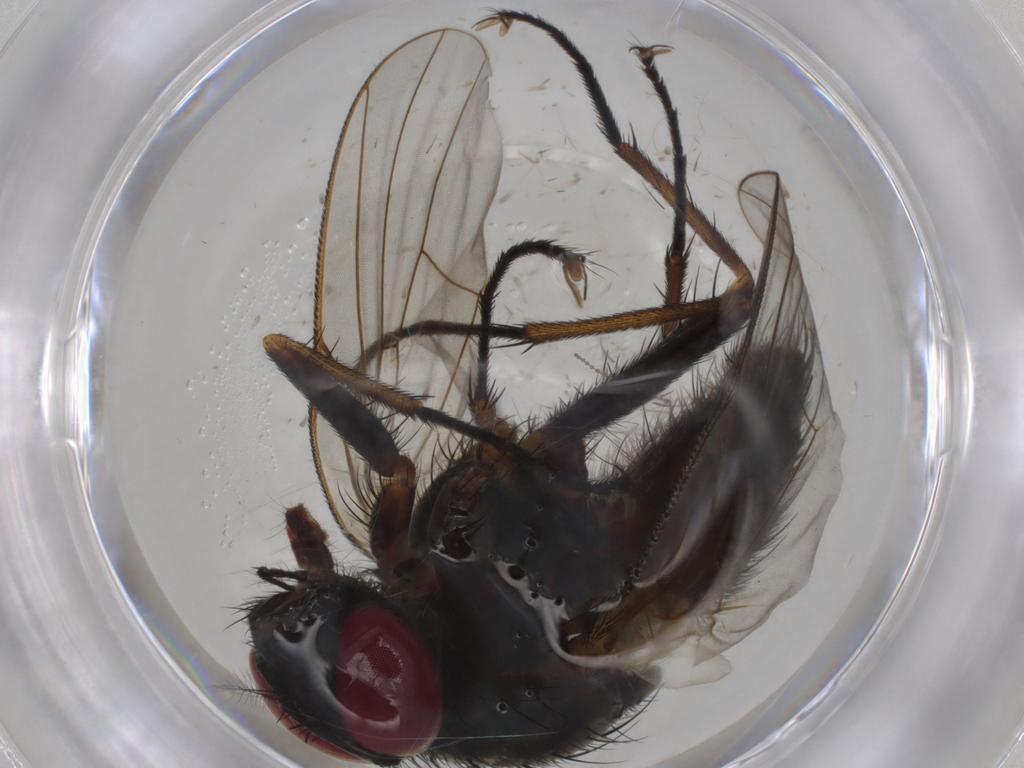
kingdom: Animalia
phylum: Arthropoda
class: Insecta
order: Diptera
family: Muscidae
